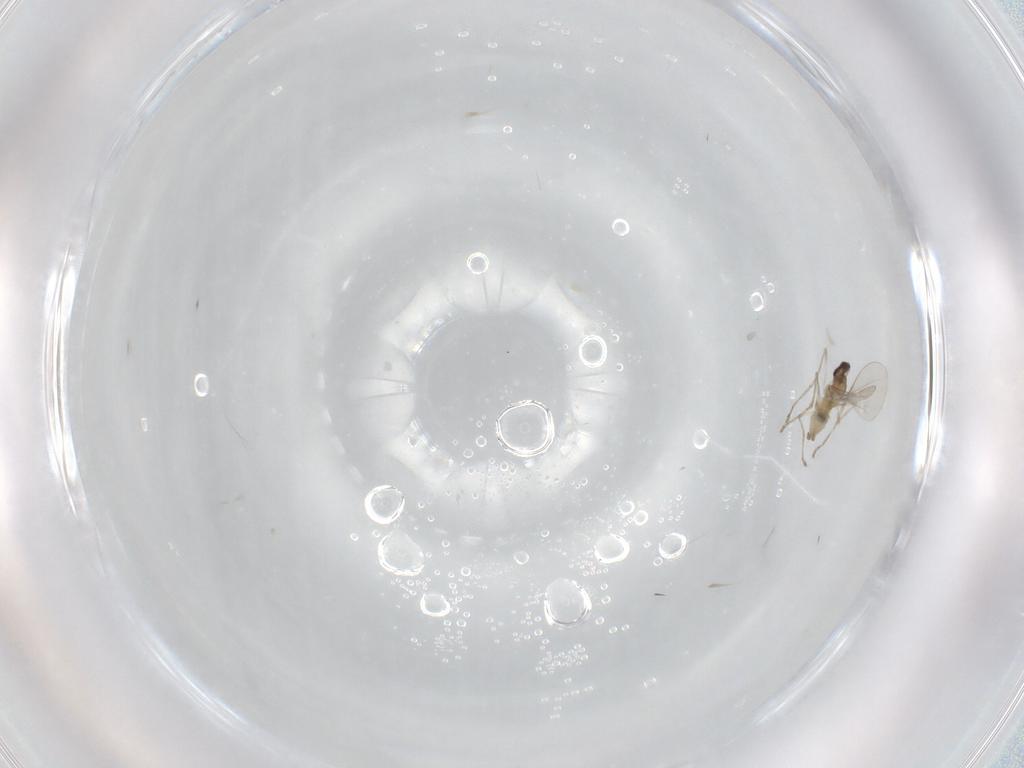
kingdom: Animalia
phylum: Arthropoda
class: Insecta
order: Diptera
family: Cecidomyiidae
